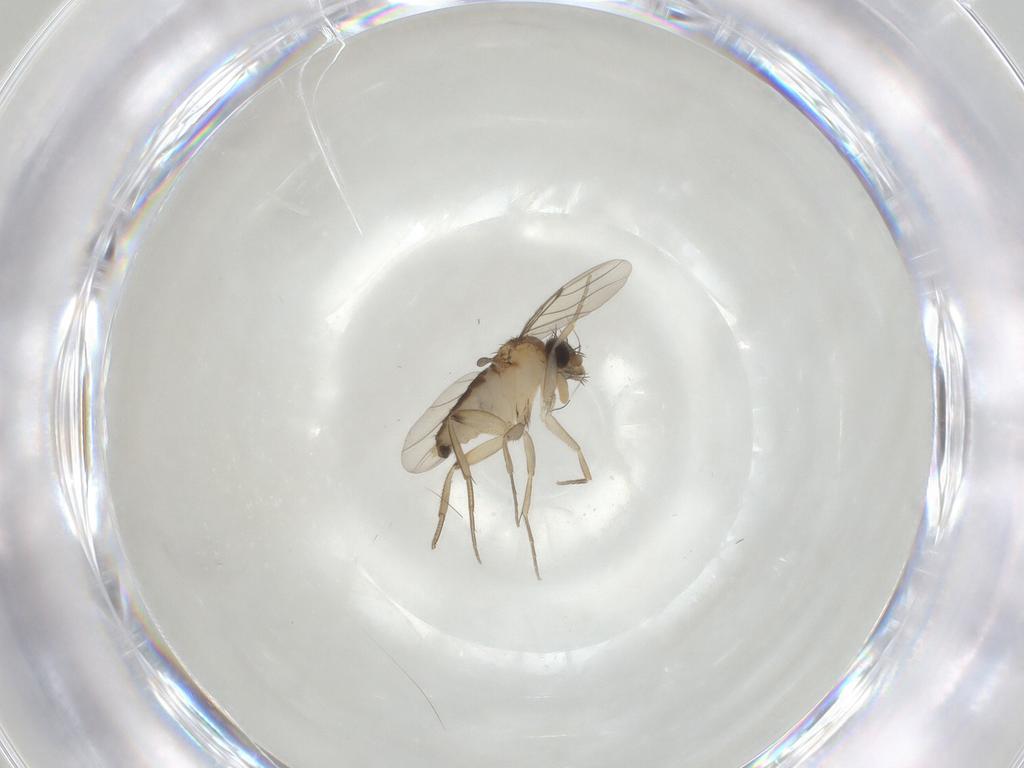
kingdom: Animalia
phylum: Arthropoda
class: Insecta
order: Diptera
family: Phoridae
